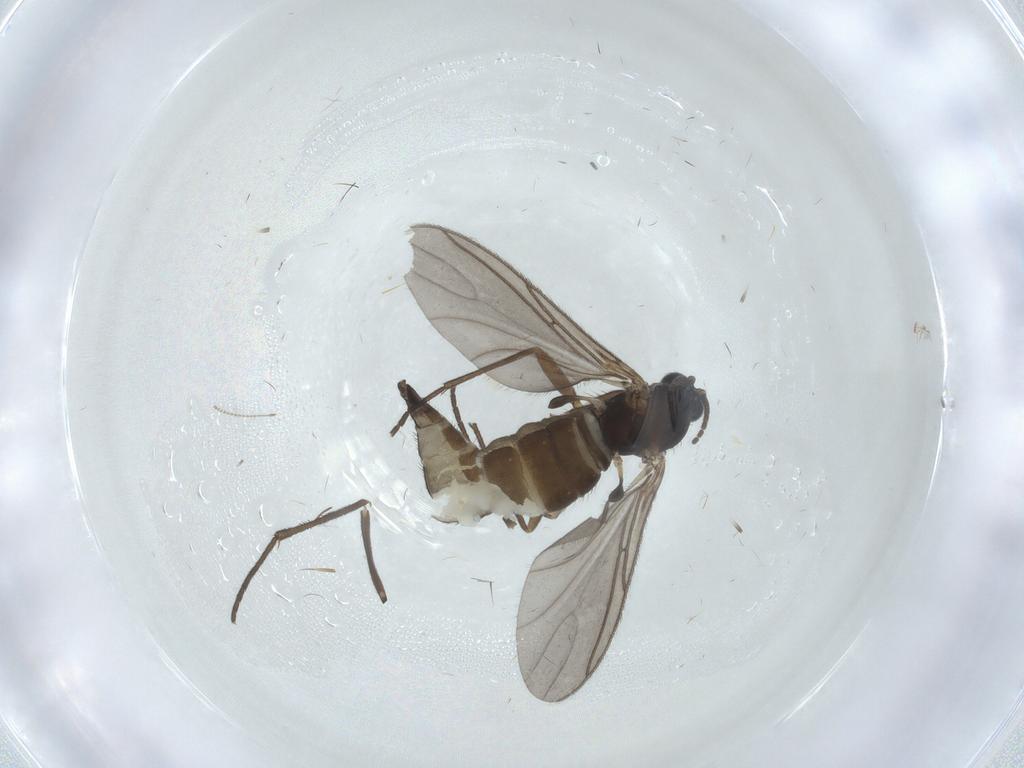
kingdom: Animalia
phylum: Arthropoda
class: Insecta
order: Diptera
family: Sciaridae
